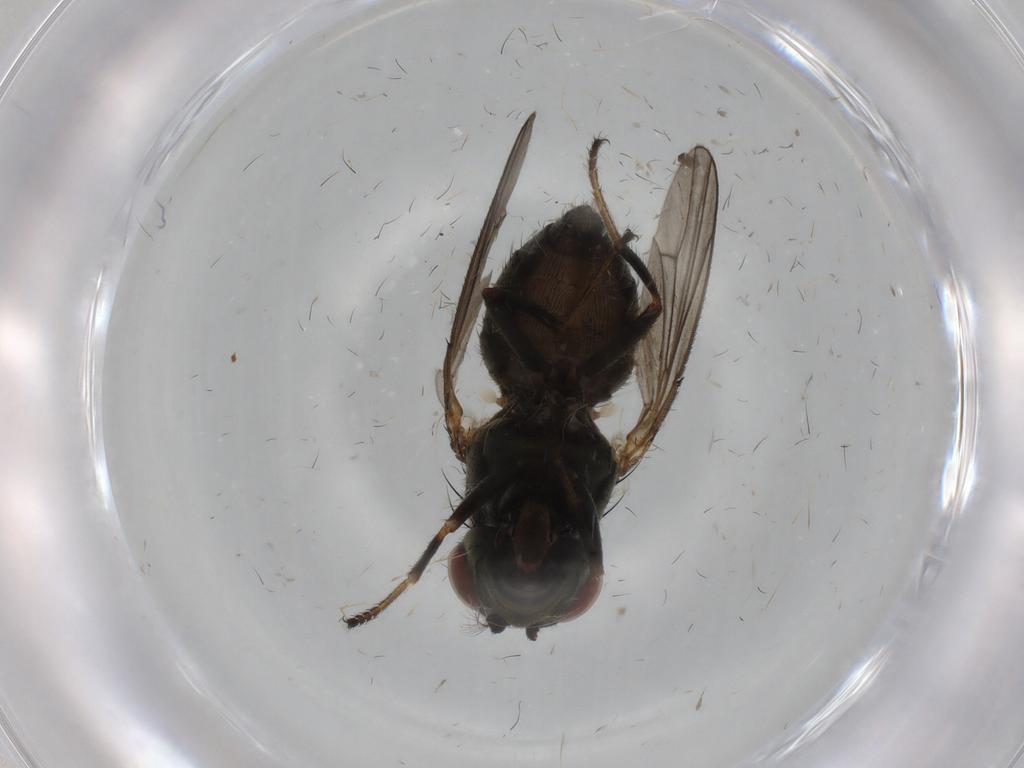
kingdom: Animalia
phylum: Arthropoda
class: Insecta
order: Diptera
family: Ephydridae
